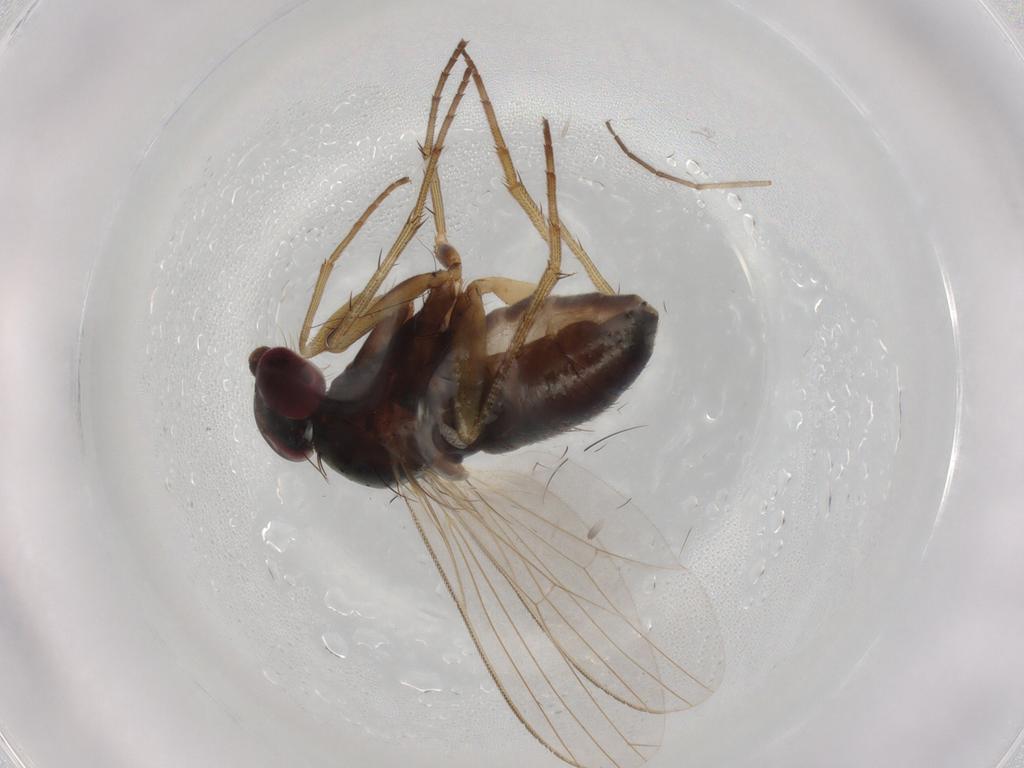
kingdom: Animalia
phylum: Arthropoda
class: Insecta
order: Diptera
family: Dolichopodidae
